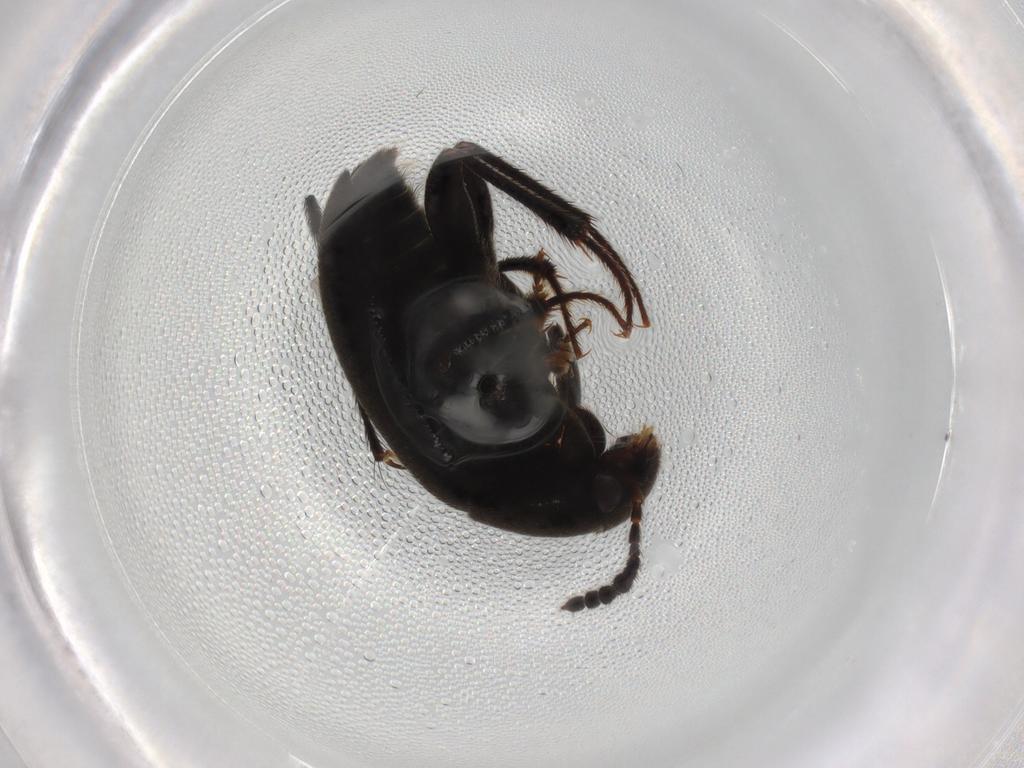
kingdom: Animalia
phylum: Arthropoda
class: Insecta
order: Coleoptera
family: Leiodidae
